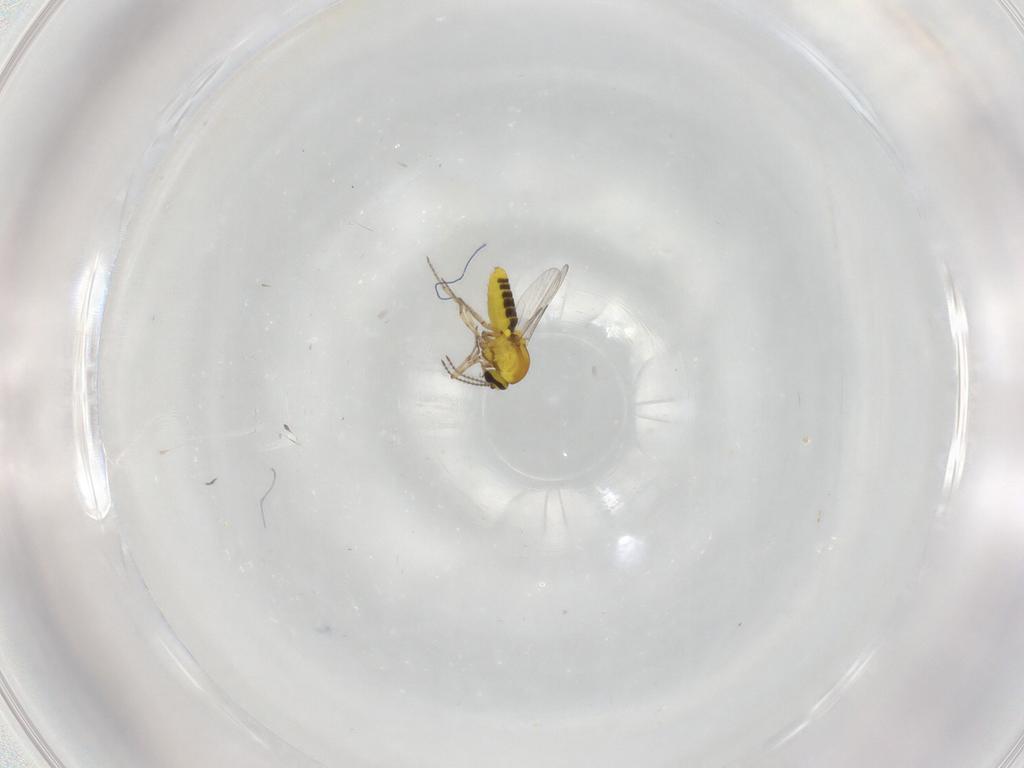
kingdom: Animalia
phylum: Arthropoda
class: Insecta
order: Diptera
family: Ceratopogonidae
